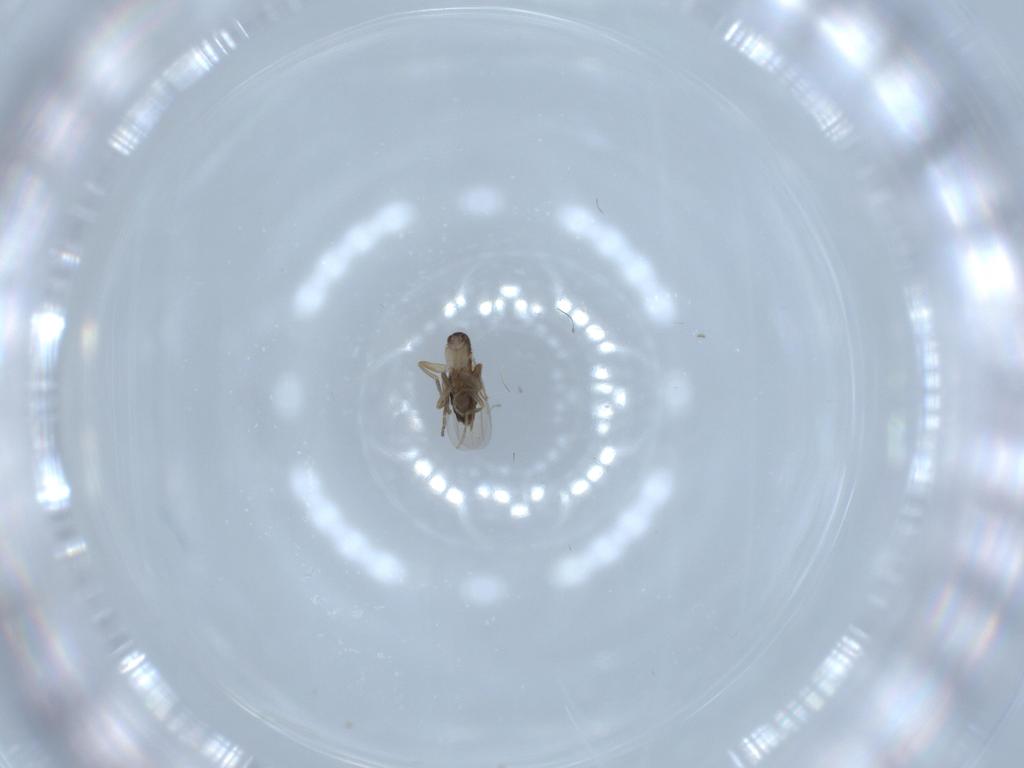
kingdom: Animalia
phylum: Arthropoda
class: Insecta
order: Diptera
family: Phoridae
